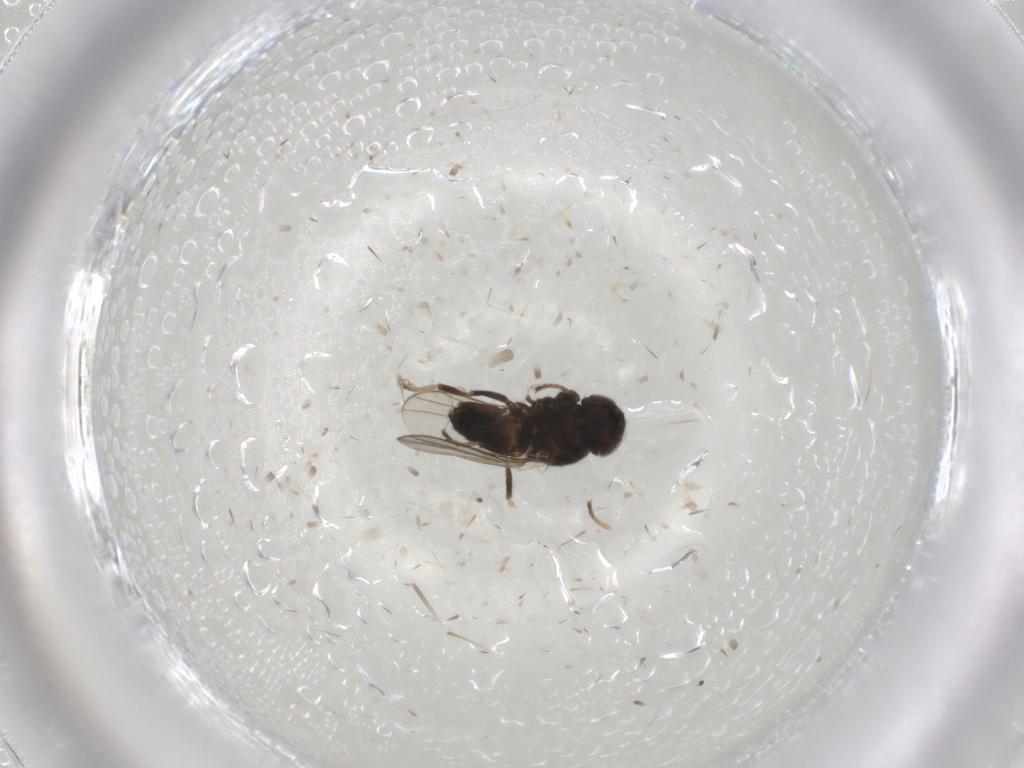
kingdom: Animalia
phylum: Arthropoda
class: Insecta
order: Diptera
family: Chloropidae
